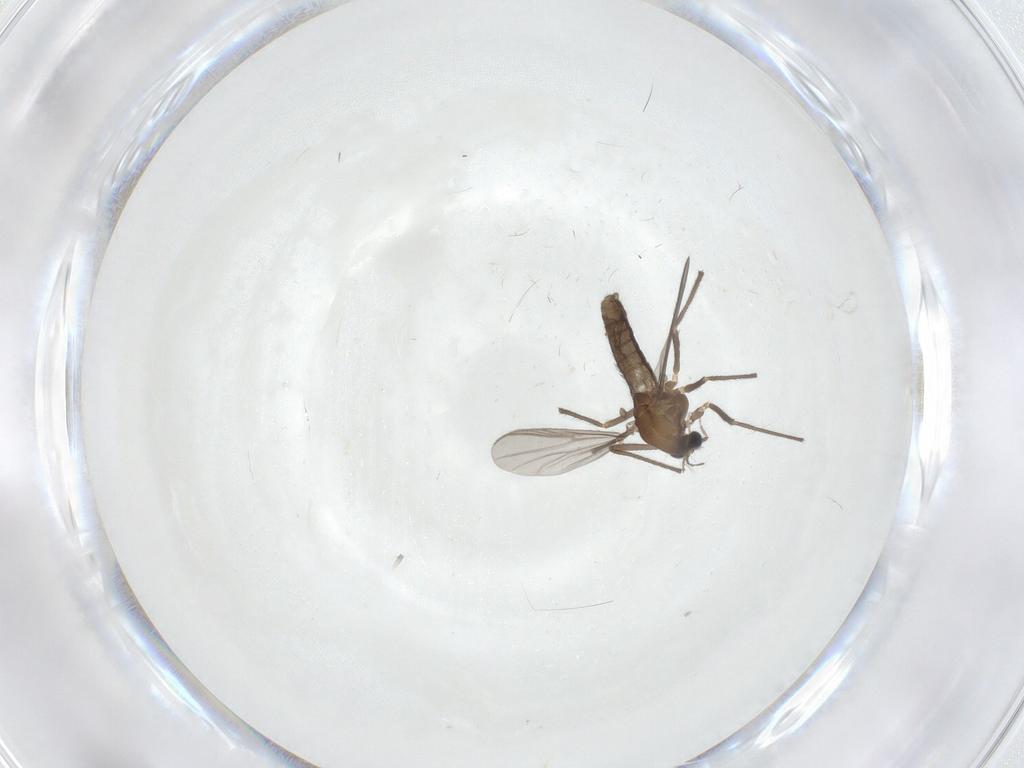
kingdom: Animalia
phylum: Arthropoda
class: Insecta
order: Diptera
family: Chironomidae
